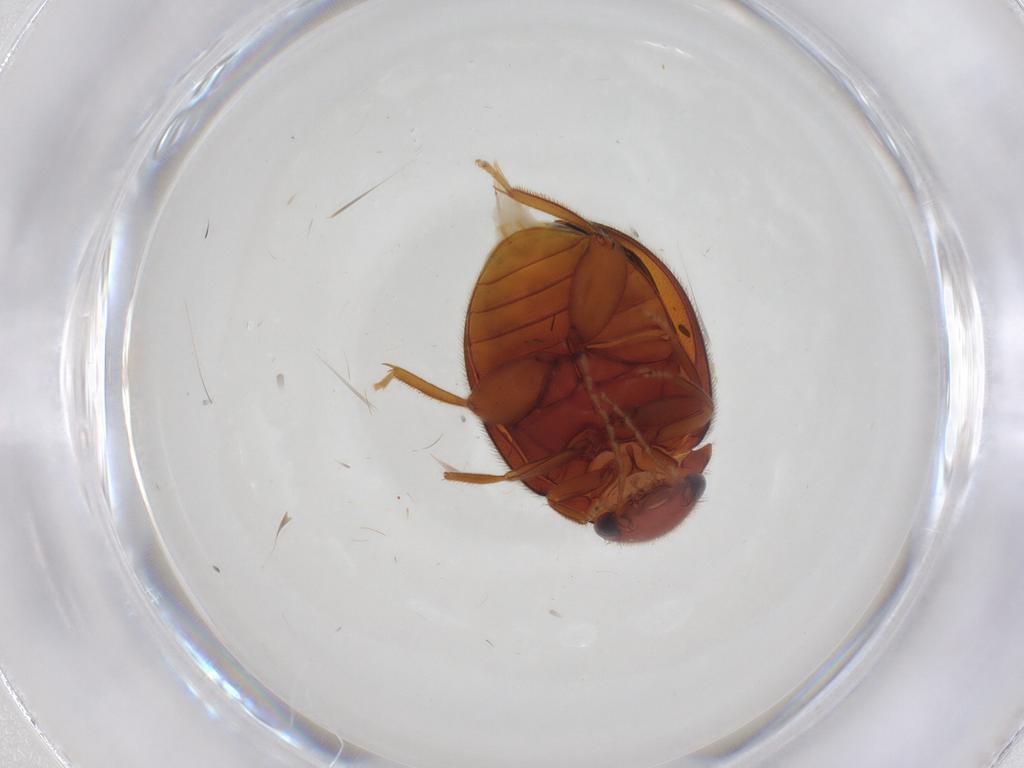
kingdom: Animalia
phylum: Arthropoda
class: Insecta
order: Coleoptera
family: Scirtidae
